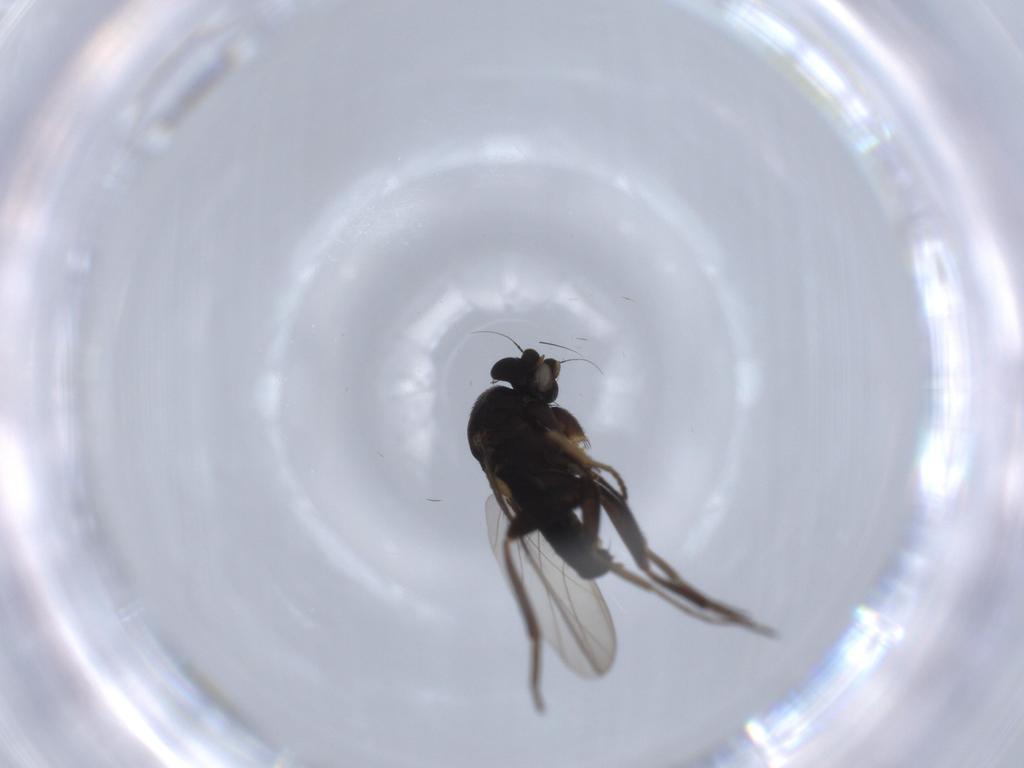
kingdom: Animalia
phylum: Arthropoda
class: Insecta
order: Diptera
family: Phoridae
